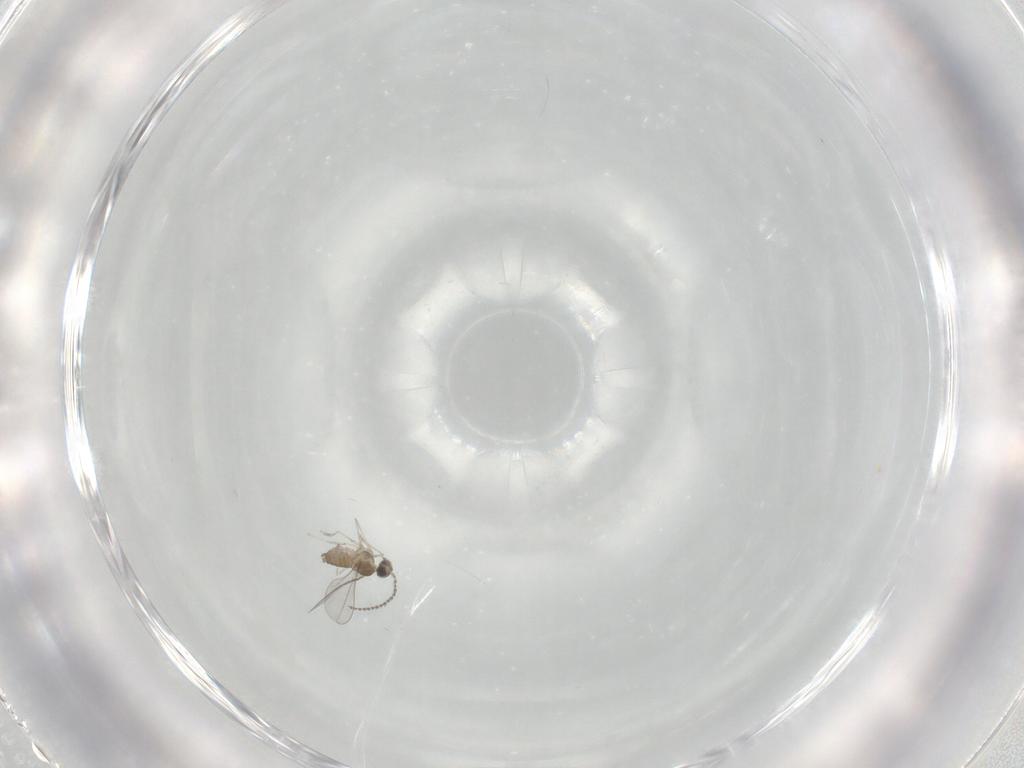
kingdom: Animalia
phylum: Arthropoda
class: Insecta
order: Diptera
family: Cecidomyiidae
